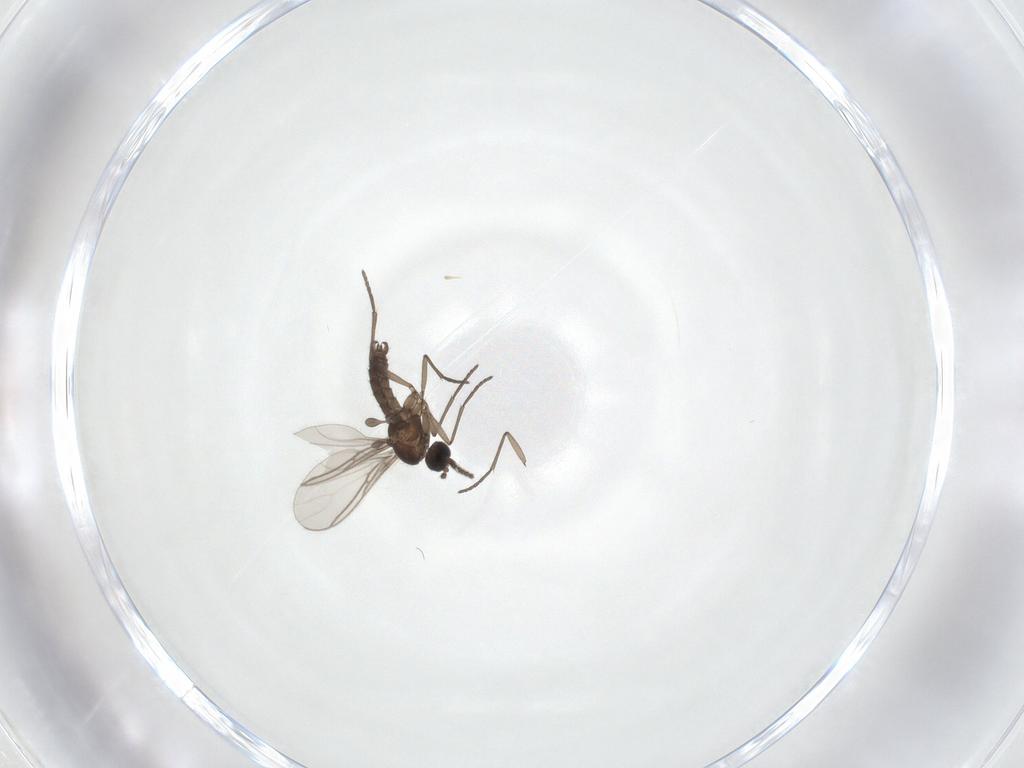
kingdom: Animalia
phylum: Arthropoda
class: Insecta
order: Diptera
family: Sciaridae
